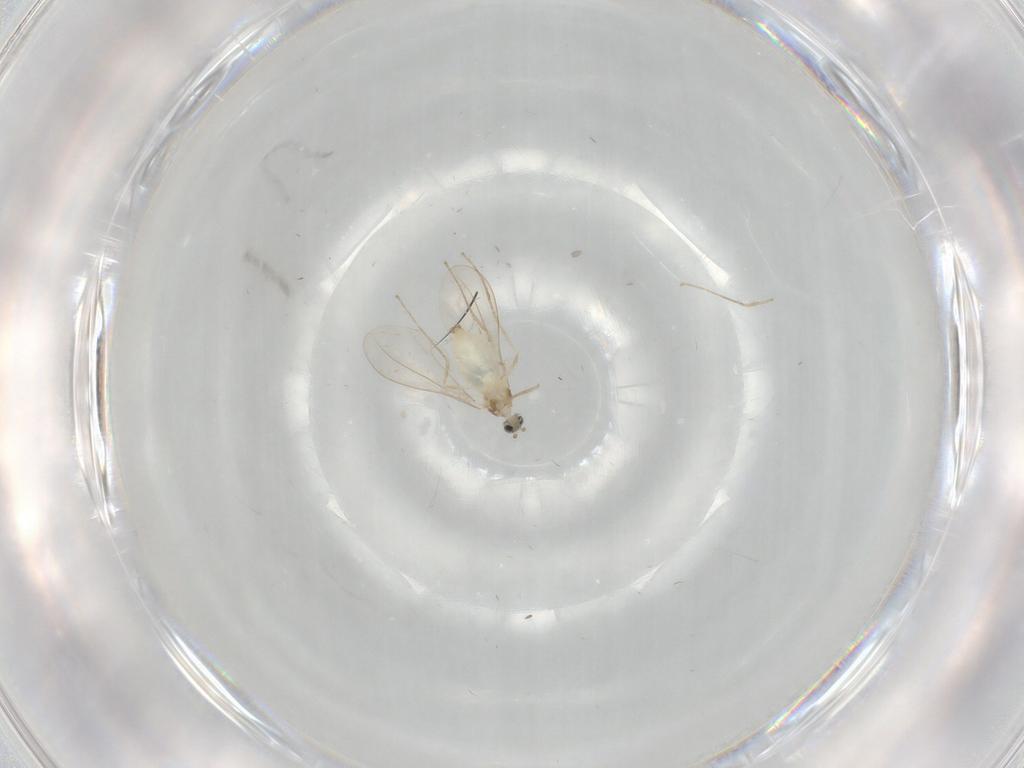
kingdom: Animalia
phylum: Arthropoda
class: Insecta
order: Diptera
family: Cecidomyiidae
